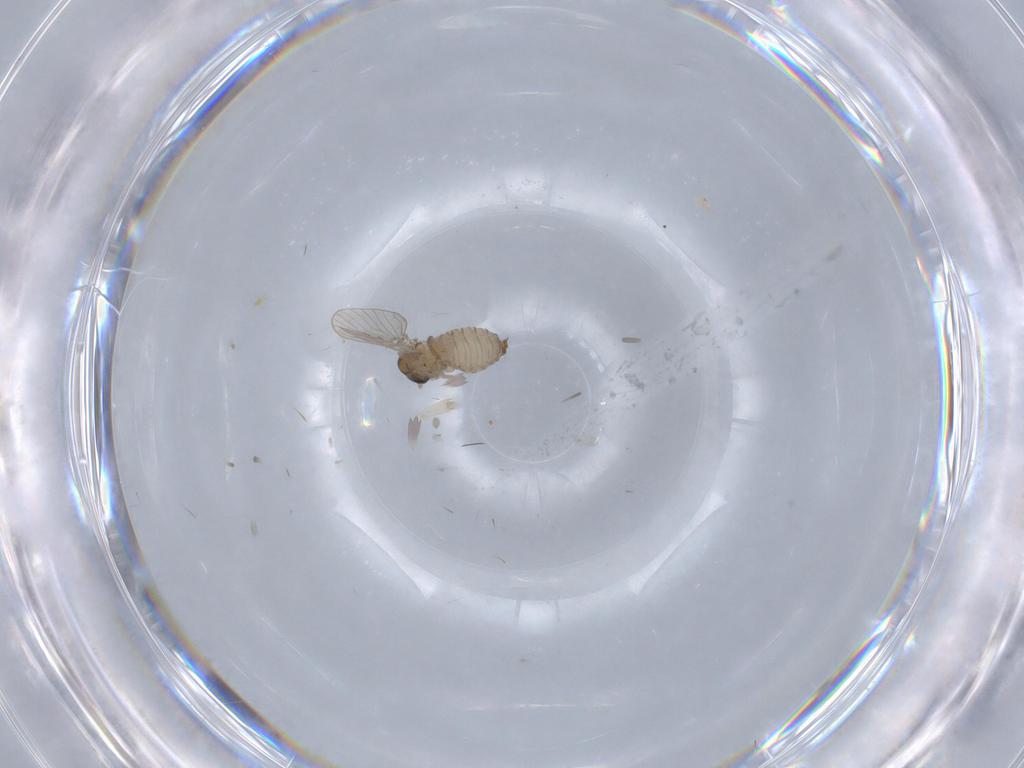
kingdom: Animalia
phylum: Arthropoda
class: Insecta
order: Diptera
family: Psychodidae
